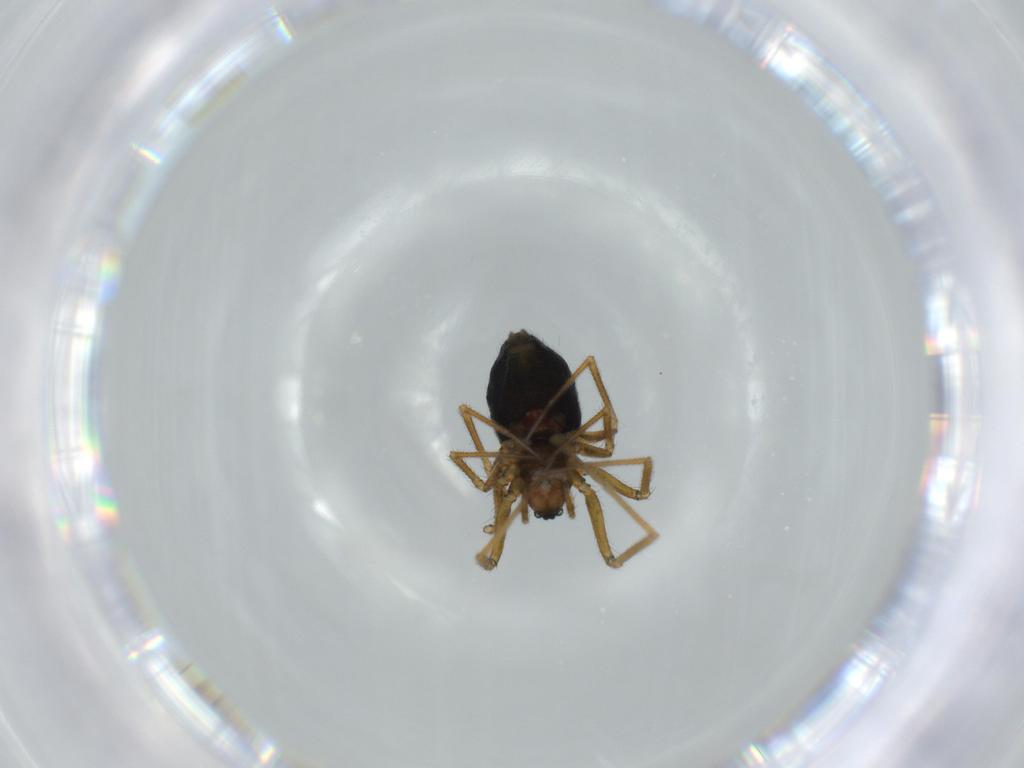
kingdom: Animalia
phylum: Arthropoda
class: Arachnida
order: Araneae
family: Linyphiidae
